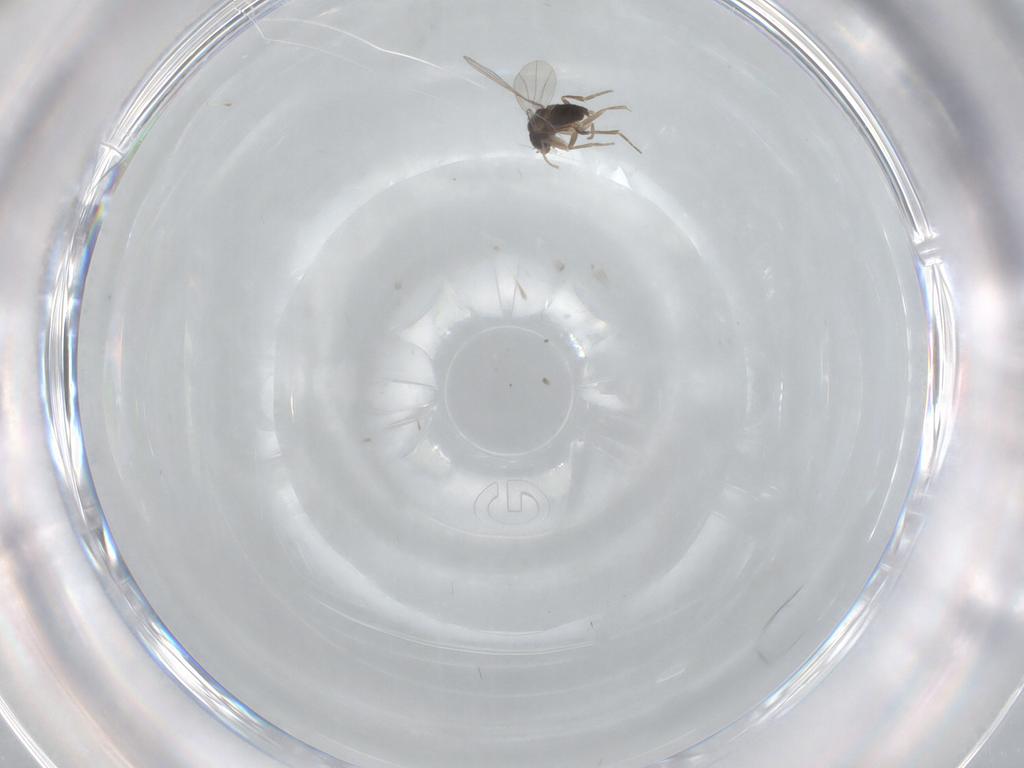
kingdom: Animalia
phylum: Arthropoda
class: Insecta
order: Diptera
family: Phoridae
